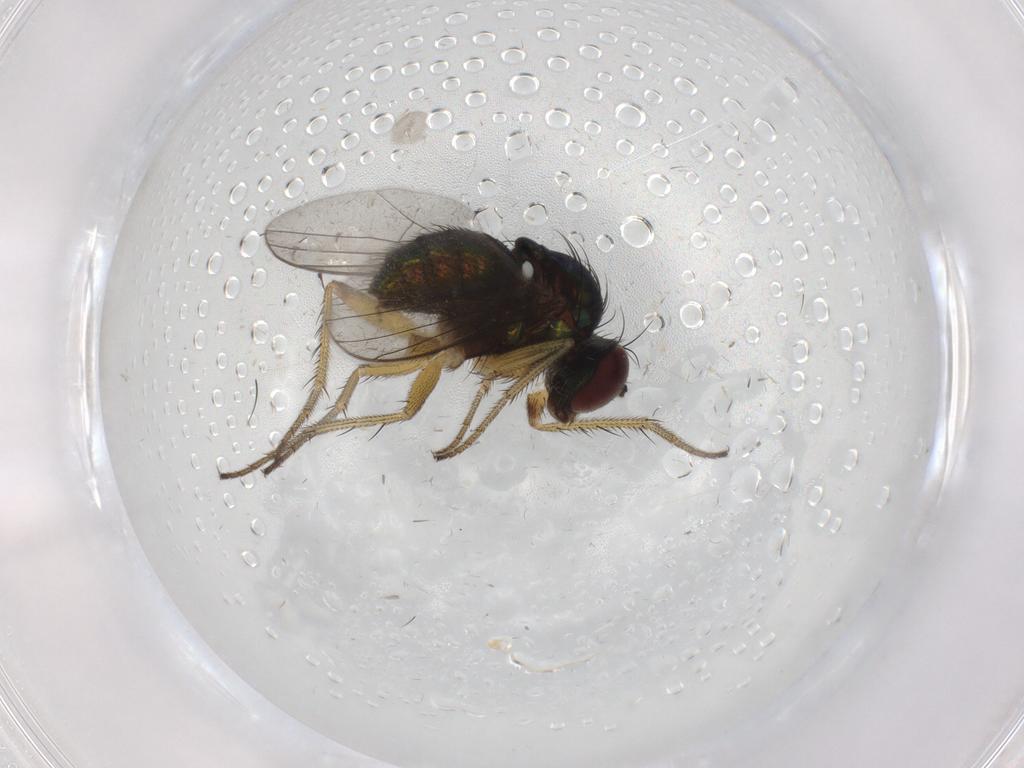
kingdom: Animalia
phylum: Arthropoda
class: Insecta
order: Diptera
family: Dolichopodidae
